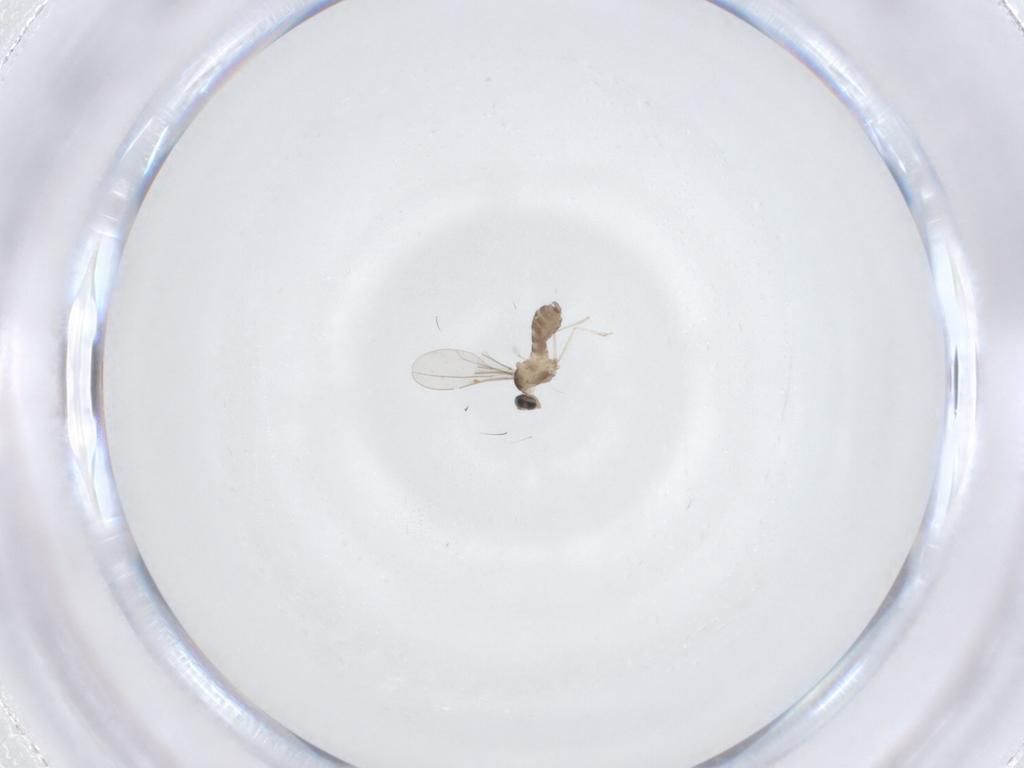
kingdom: Animalia
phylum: Arthropoda
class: Insecta
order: Diptera
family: Cecidomyiidae
